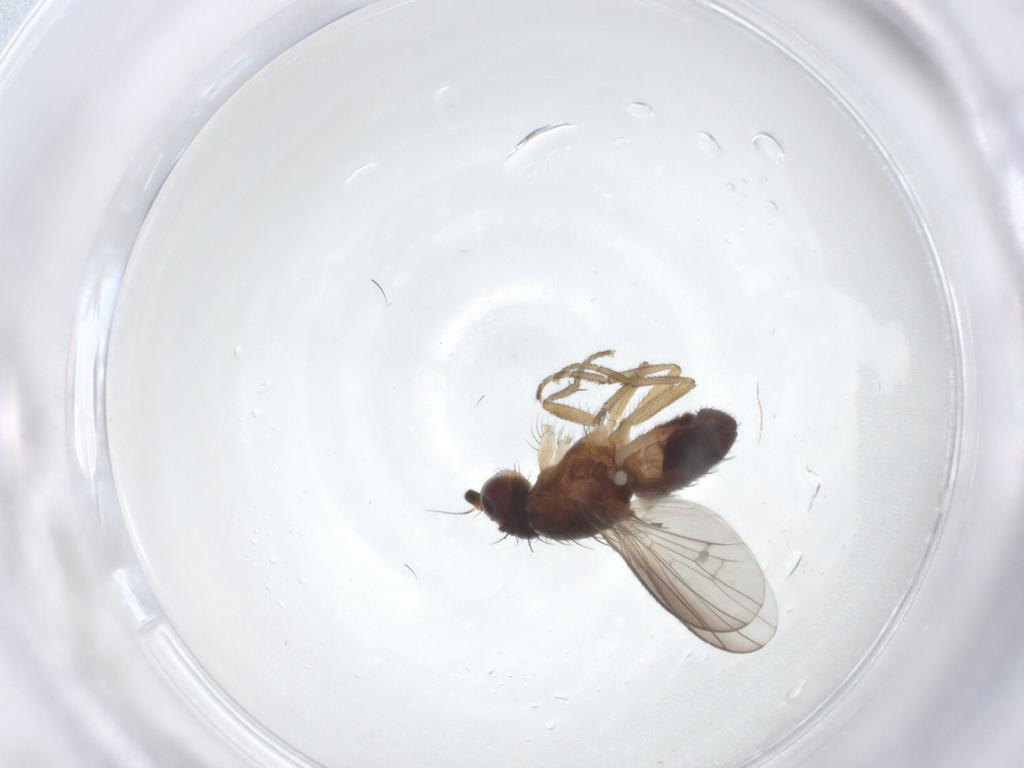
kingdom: Animalia
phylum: Arthropoda
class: Insecta
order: Diptera
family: Heleomyzidae
